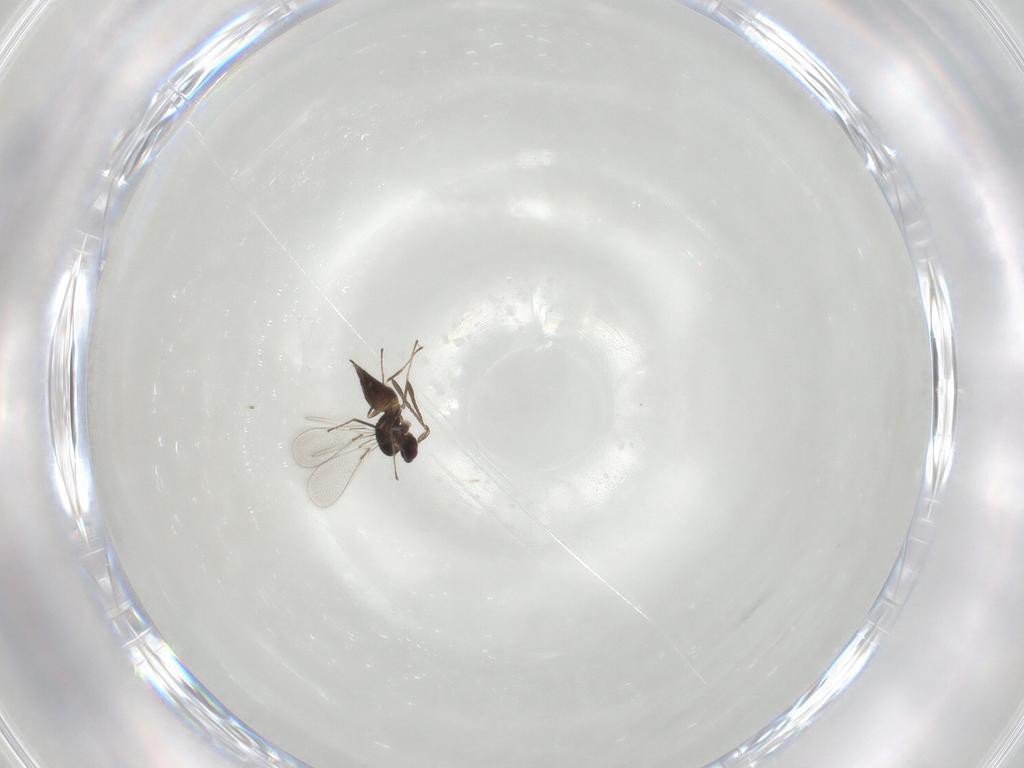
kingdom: Animalia
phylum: Arthropoda
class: Insecta
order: Hymenoptera
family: Mymaridae
